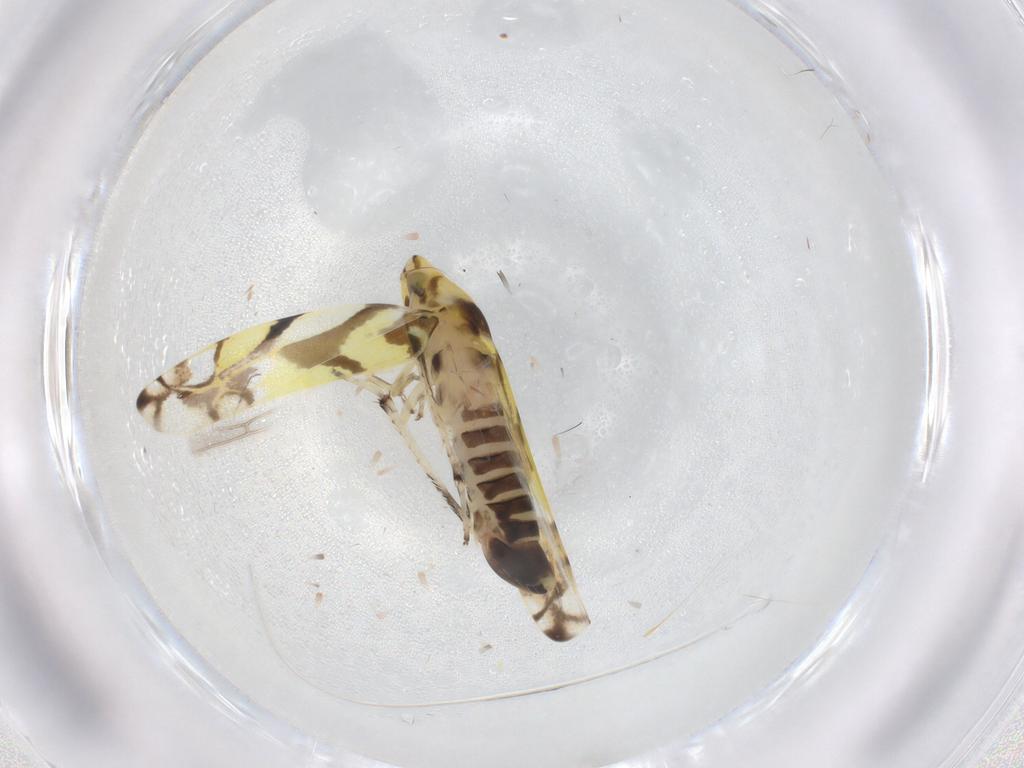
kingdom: Animalia
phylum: Arthropoda
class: Insecta
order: Hemiptera
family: Cicadellidae
